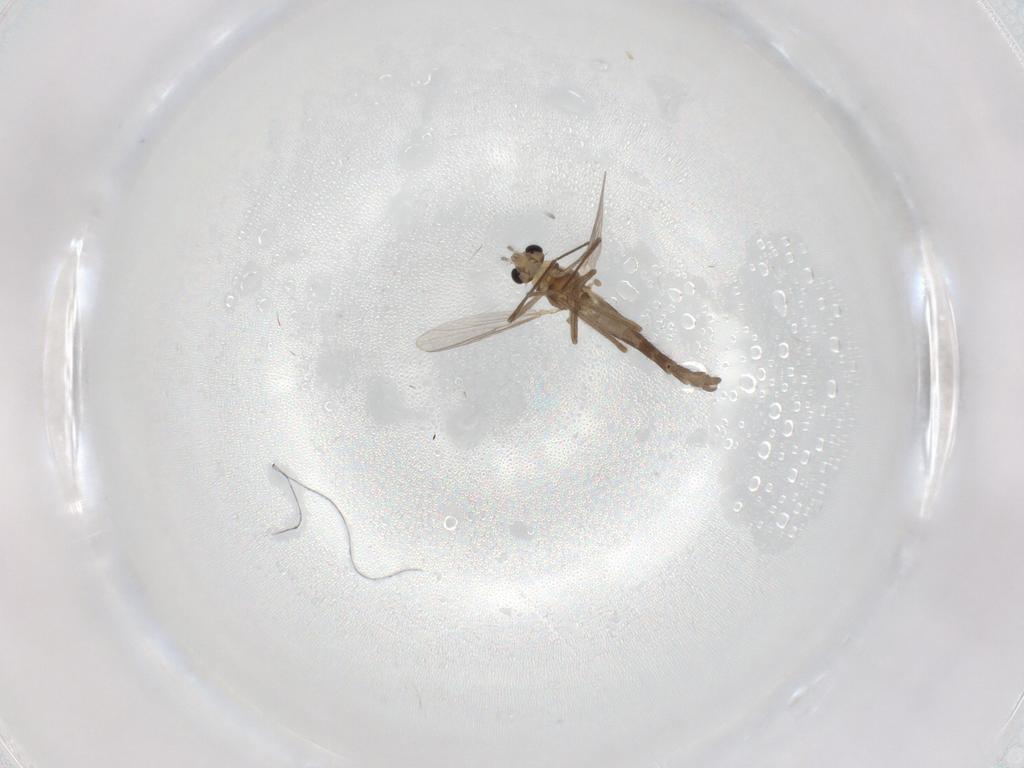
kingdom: Animalia
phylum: Arthropoda
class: Insecta
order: Diptera
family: Chironomidae
